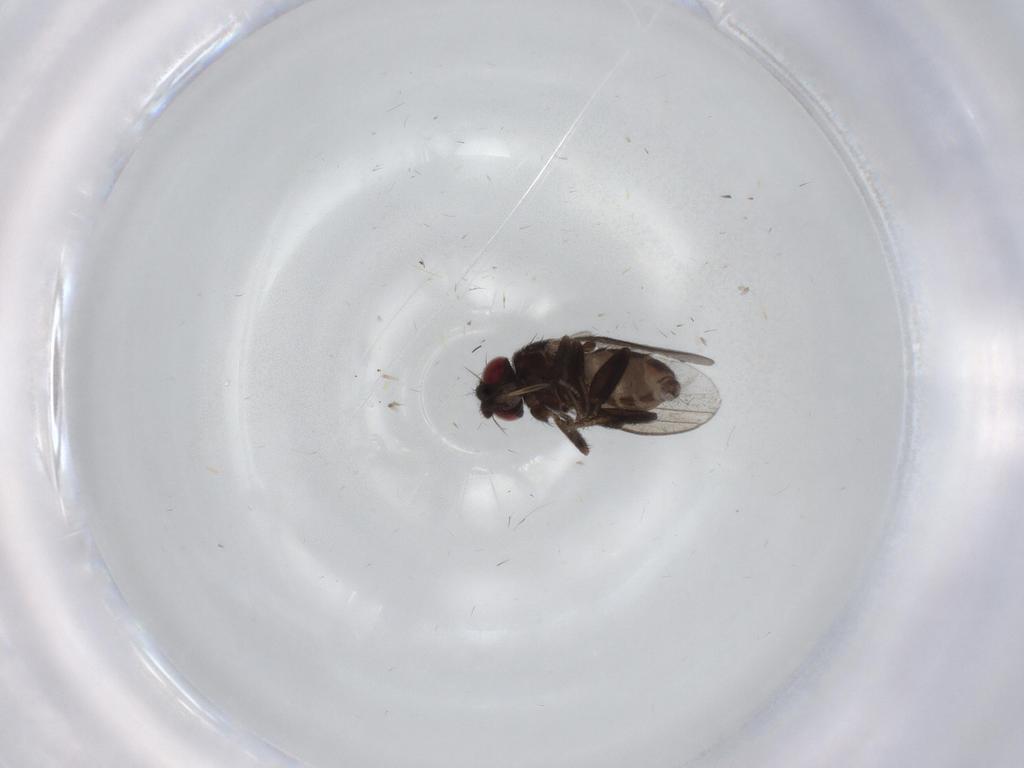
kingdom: Animalia
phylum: Arthropoda
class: Insecta
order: Diptera
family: Milichiidae
